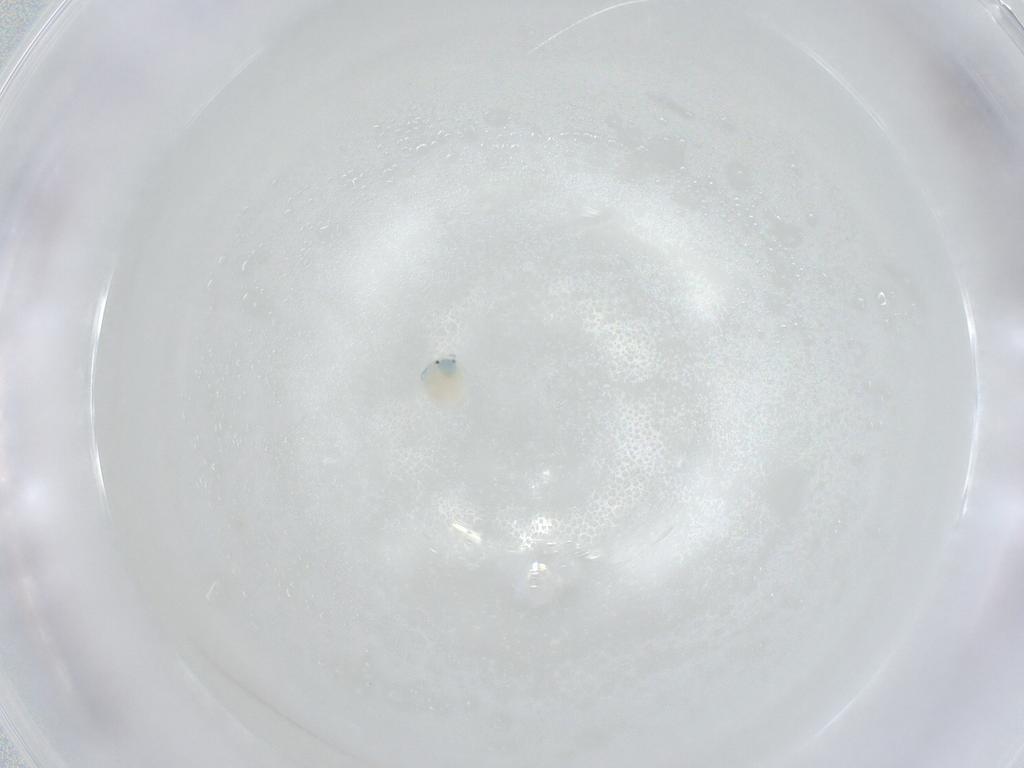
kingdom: Animalia
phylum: Arthropoda
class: Arachnida
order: Trombidiformes
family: Arrenuridae
